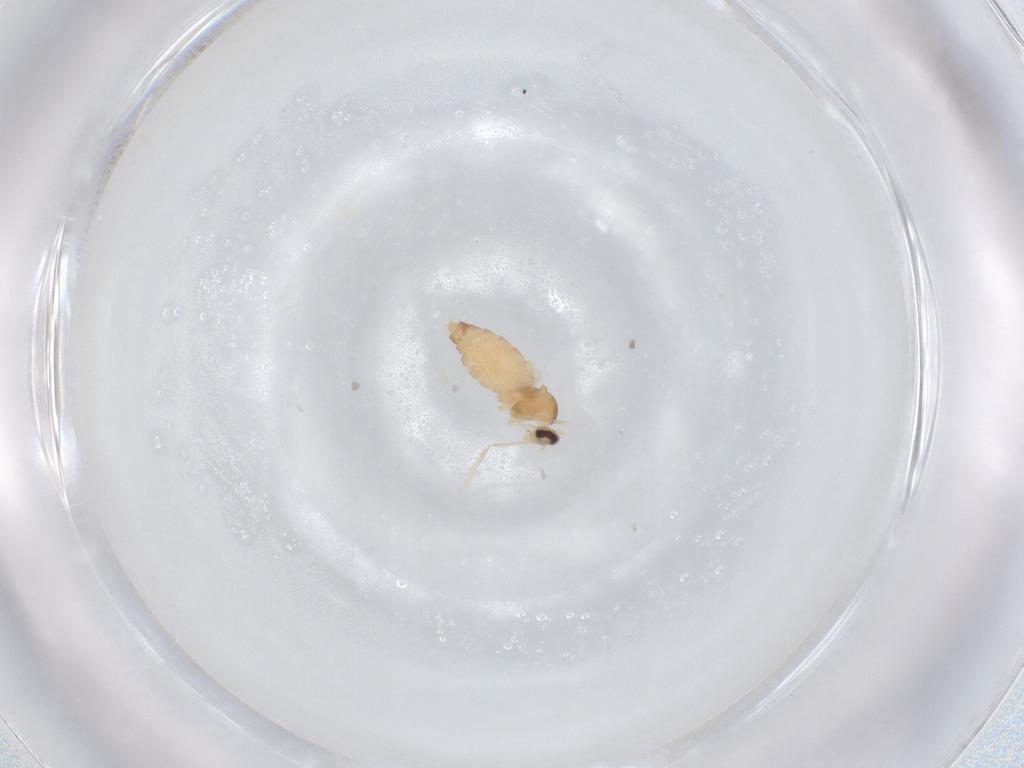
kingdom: Animalia
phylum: Arthropoda
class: Insecta
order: Diptera
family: Cecidomyiidae
